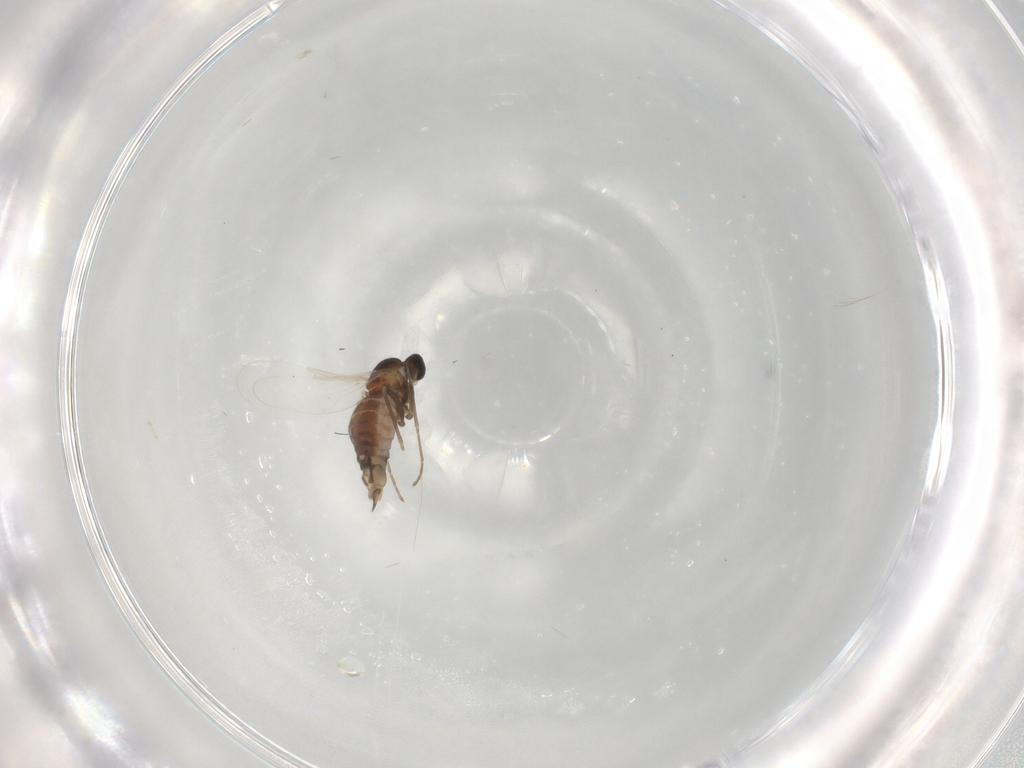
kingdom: Animalia
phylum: Arthropoda
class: Insecta
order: Diptera
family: Cecidomyiidae
